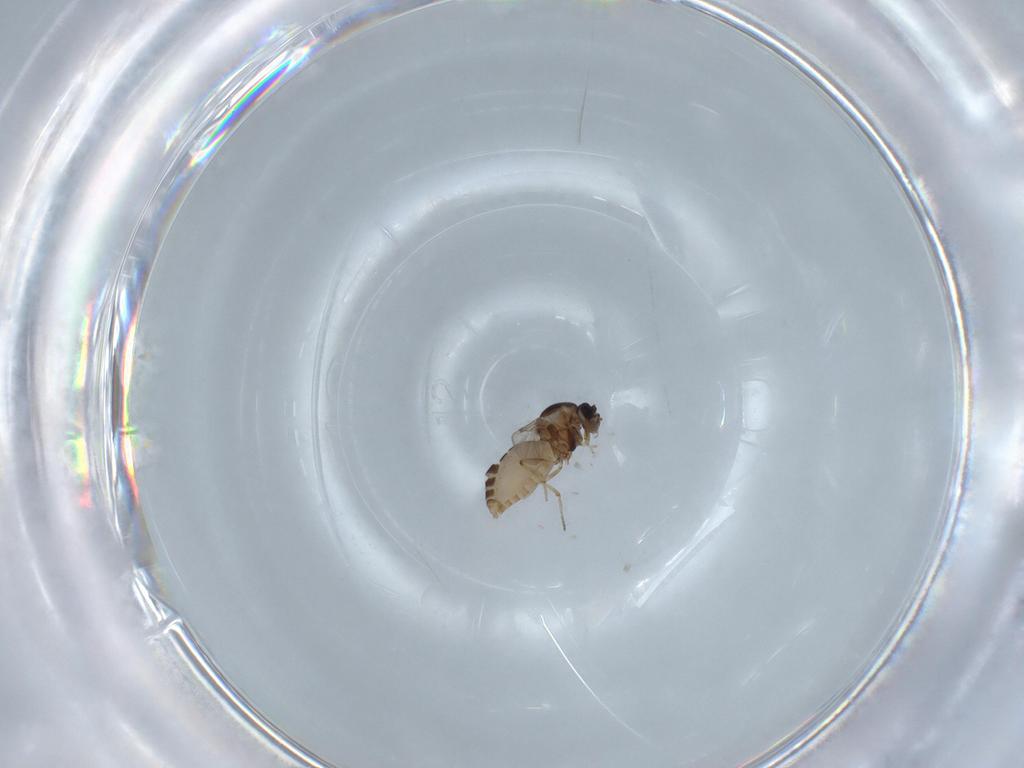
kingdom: Animalia
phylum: Arthropoda
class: Insecta
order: Diptera
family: Ceratopogonidae
